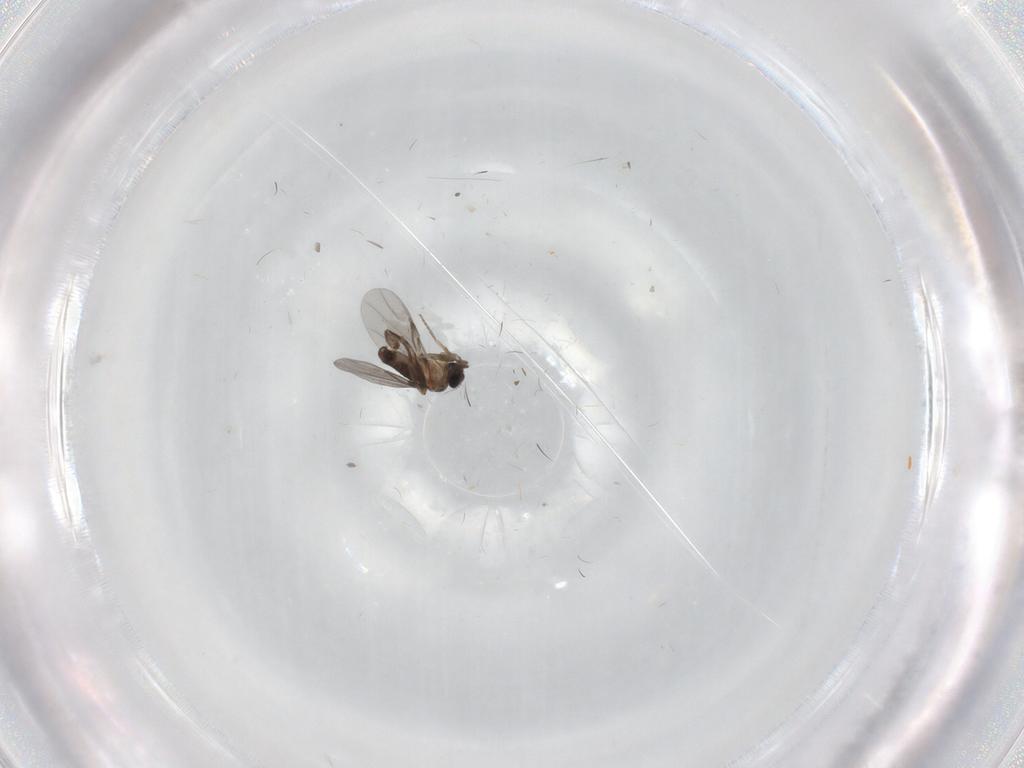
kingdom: Animalia
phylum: Arthropoda
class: Insecta
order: Diptera
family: Sciaridae
